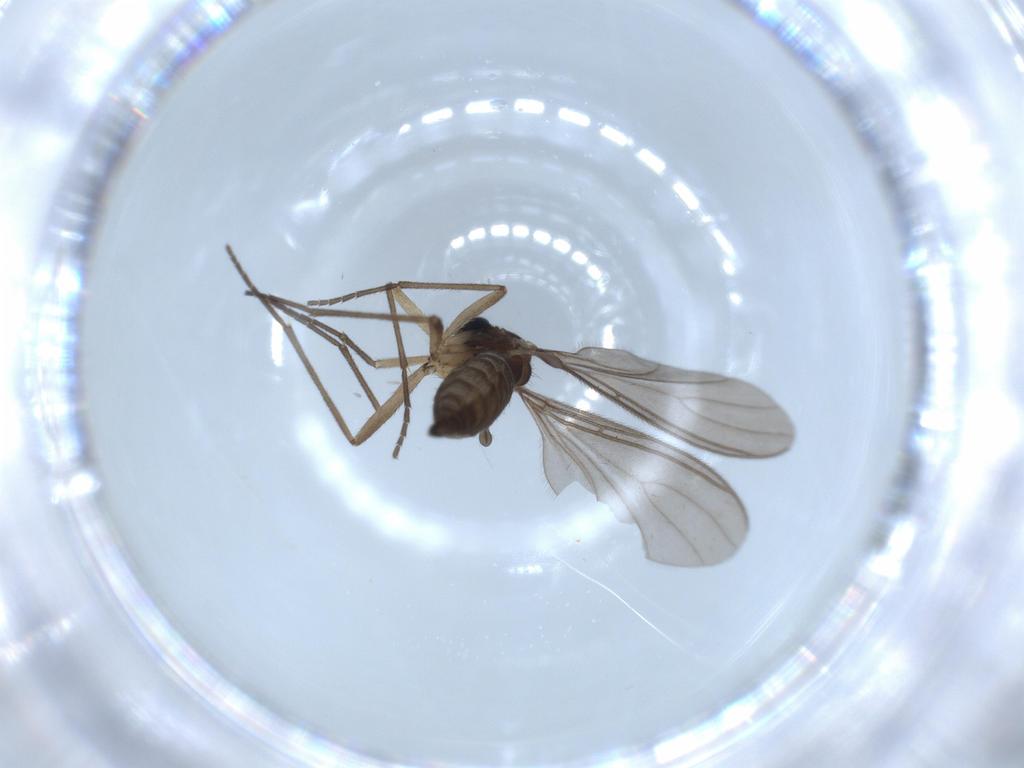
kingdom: Animalia
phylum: Arthropoda
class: Insecta
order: Diptera
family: Sciaridae
